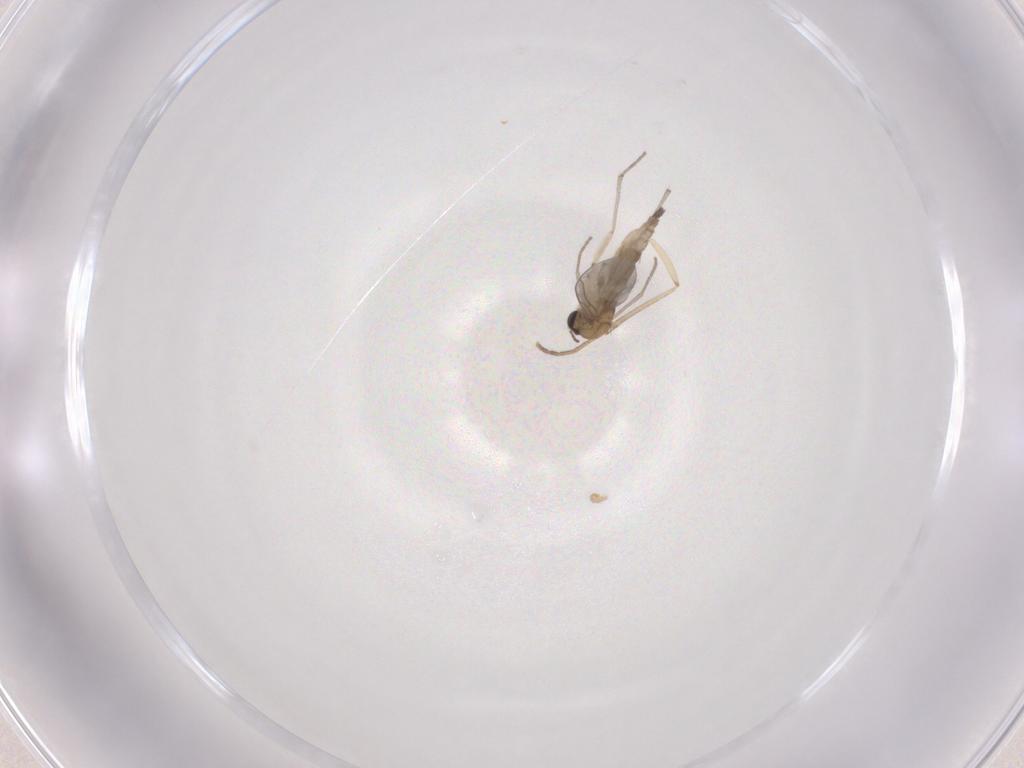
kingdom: Animalia
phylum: Arthropoda
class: Insecta
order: Diptera
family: Sciaridae
